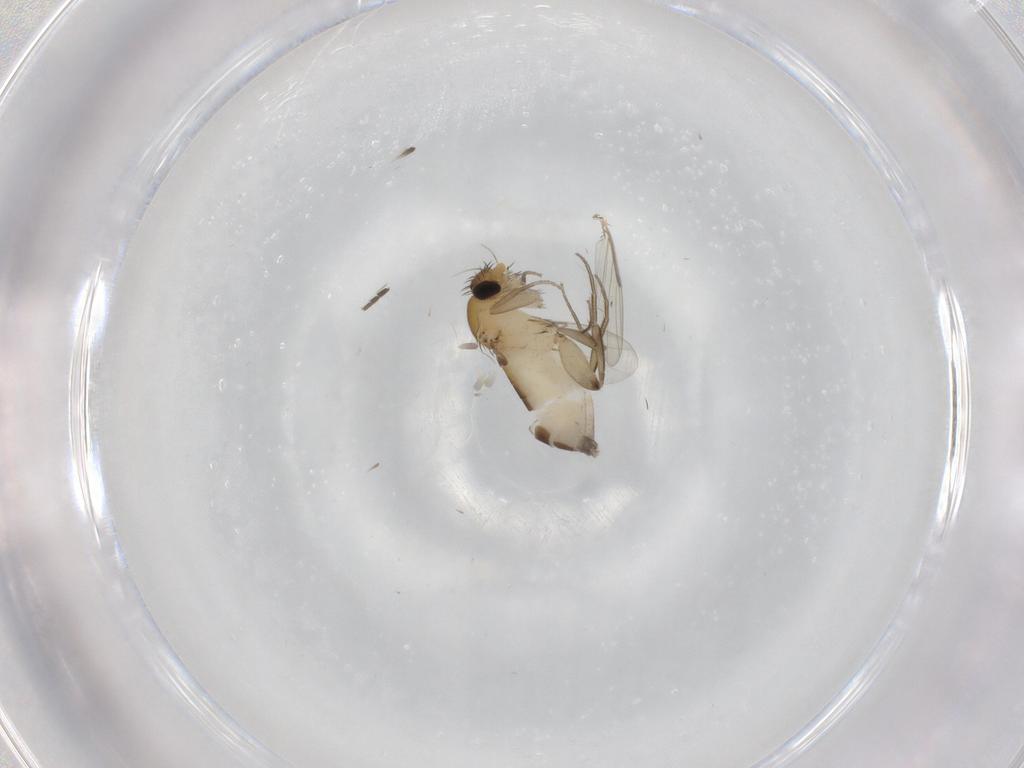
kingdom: Animalia
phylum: Arthropoda
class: Insecta
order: Diptera
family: Phoridae
